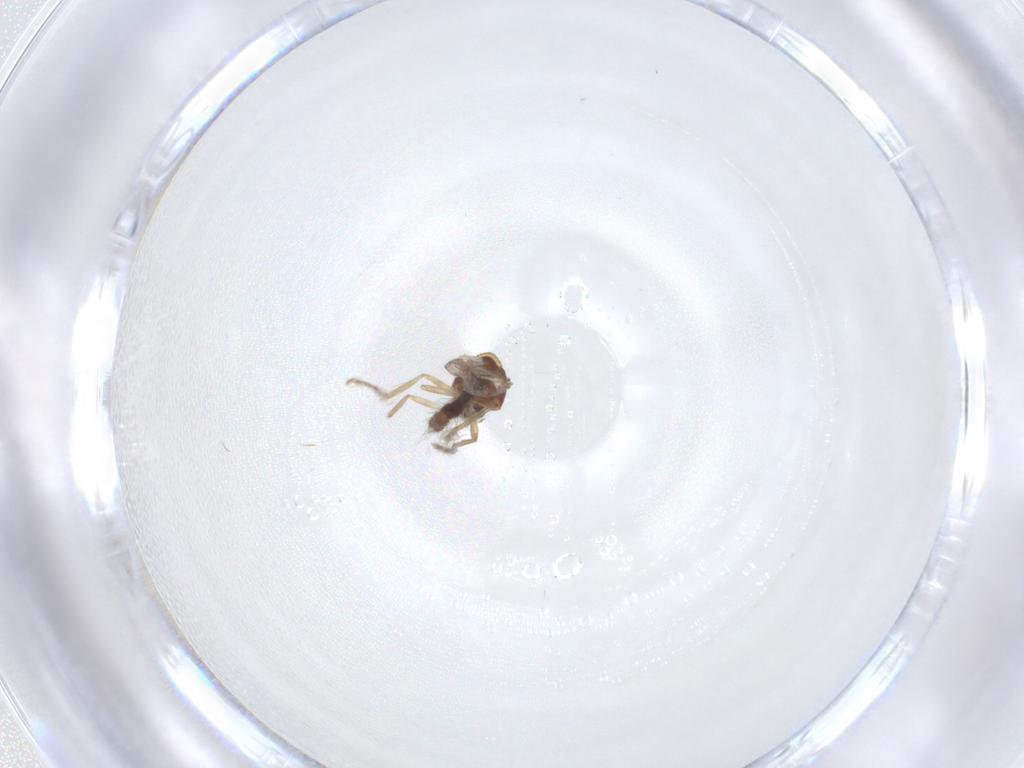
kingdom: Animalia
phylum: Arthropoda
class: Insecta
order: Diptera
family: Ceratopogonidae
